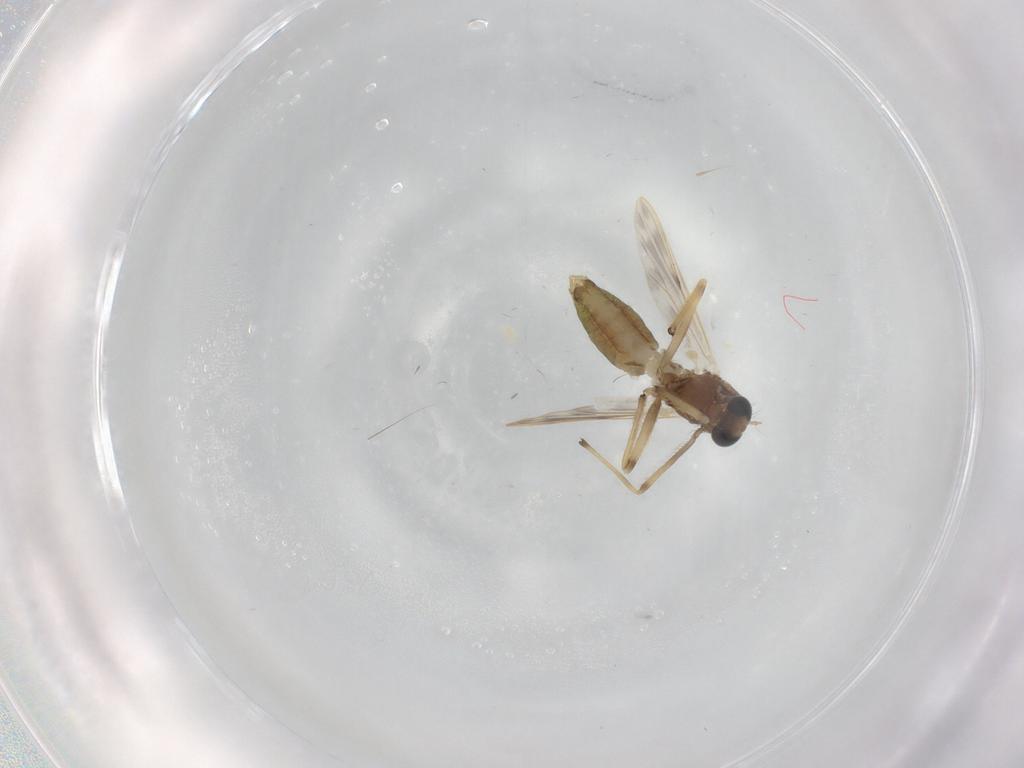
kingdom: Animalia
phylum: Arthropoda
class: Insecta
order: Diptera
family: Chironomidae
